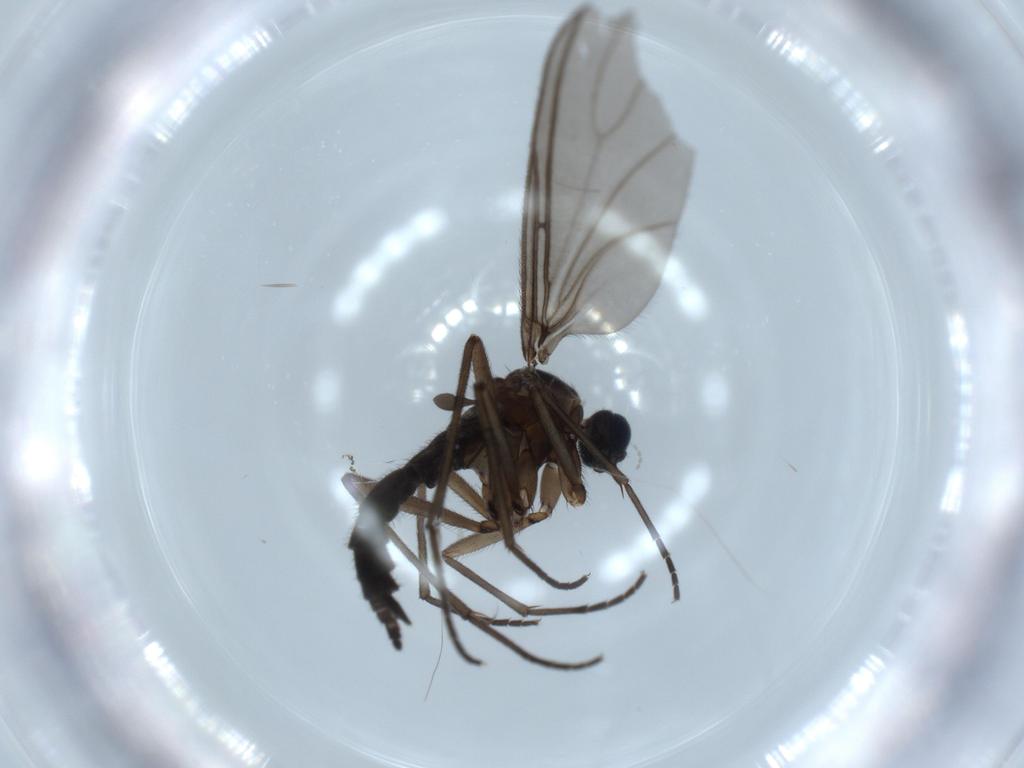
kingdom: Animalia
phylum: Arthropoda
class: Insecta
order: Diptera
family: Sciaridae
